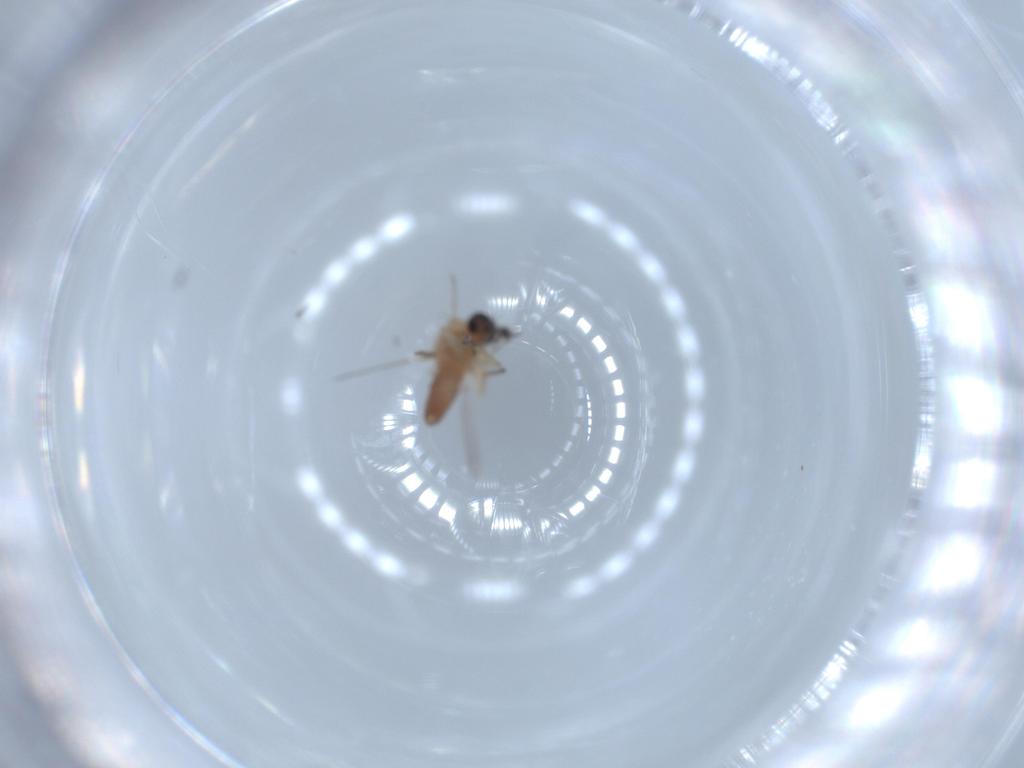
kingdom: Animalia
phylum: Arthropoda
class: Insecta
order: Diptera
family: Ceratopogonidae
